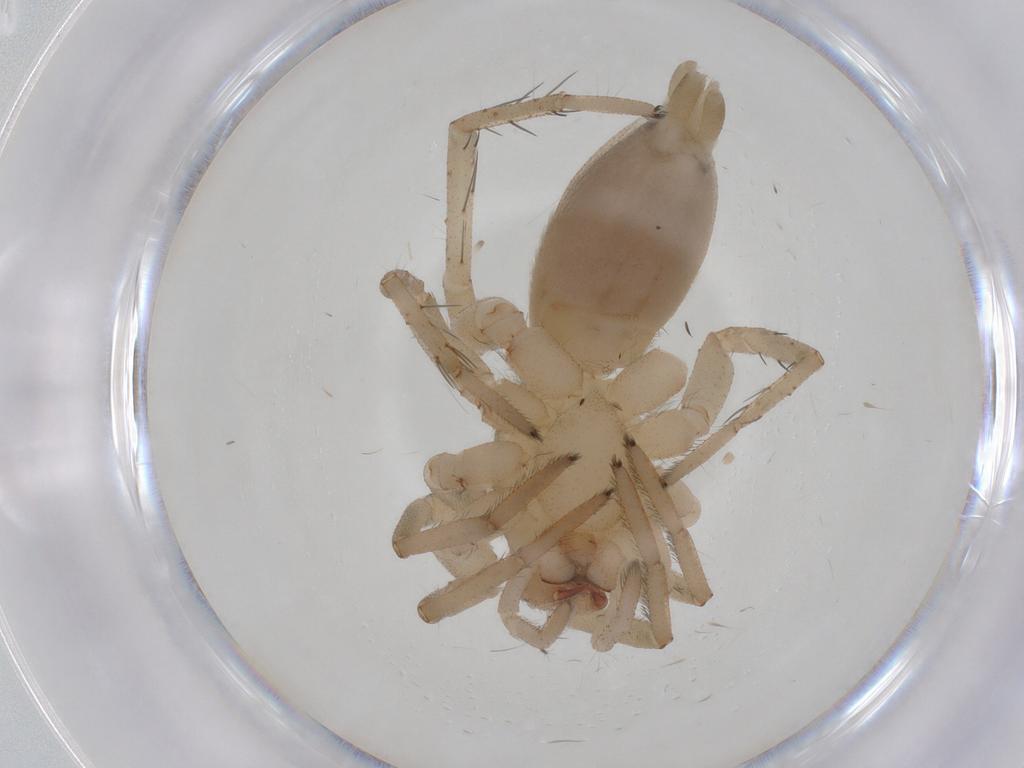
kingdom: Animalia
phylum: Arthropoda
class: Arachnida
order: Araneae
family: Gnaphosidae
